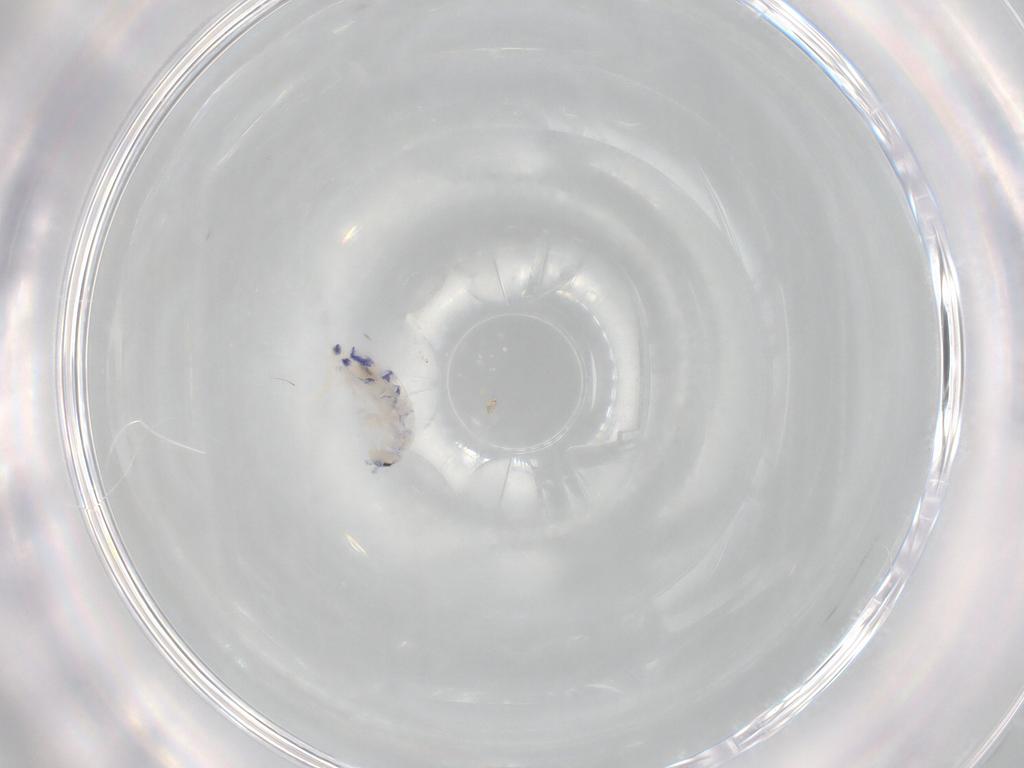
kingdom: Animalia
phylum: Arthropoda
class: Collembola
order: Entomobryomorpha
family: Entomobryidae
